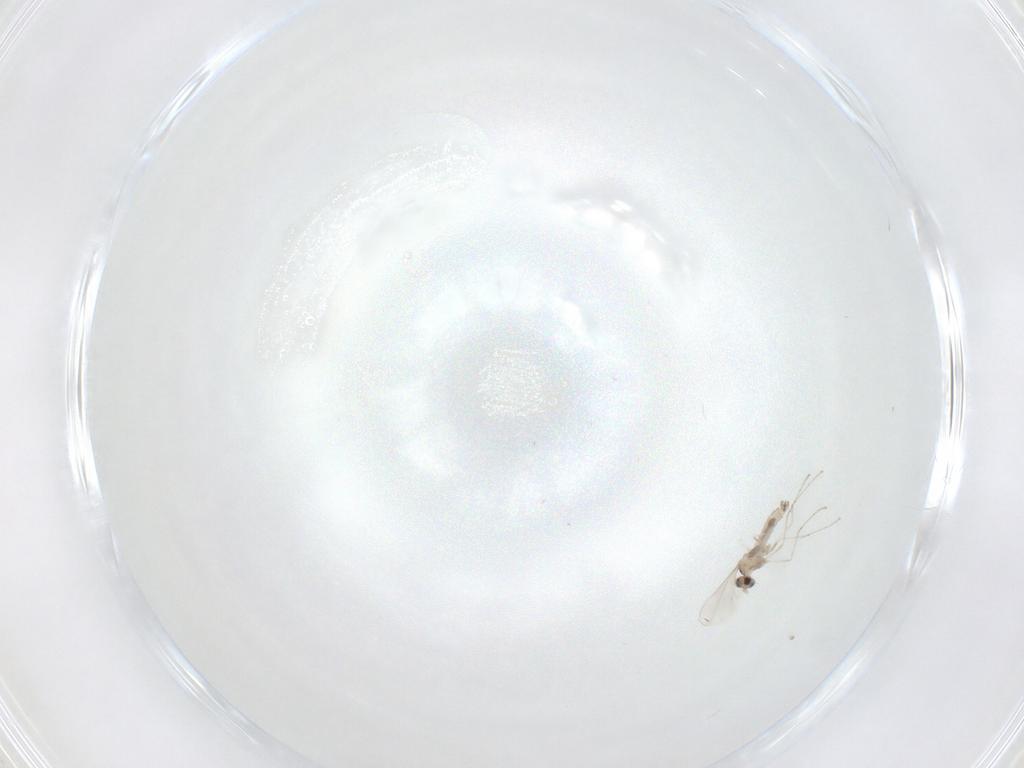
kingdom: Animalia
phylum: Arthropoda
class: Insecta
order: Diptera
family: Cecidomyiidae
